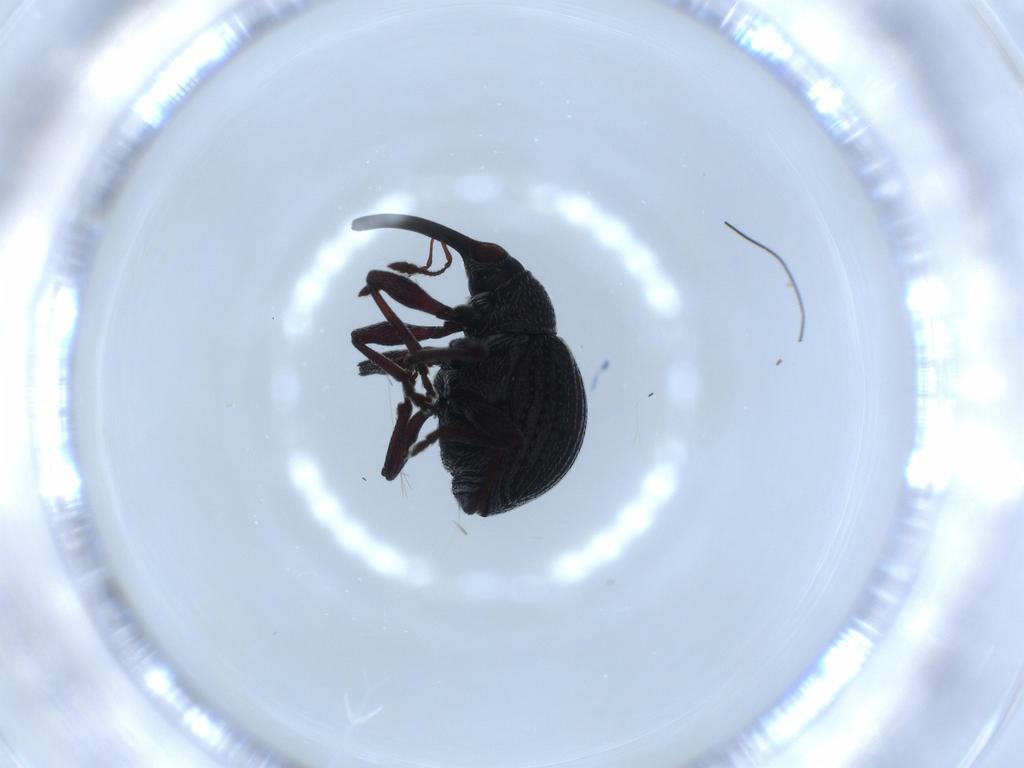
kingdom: Animalia
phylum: Arthropoda
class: Insecta
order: Coleoptera
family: Brentidae
